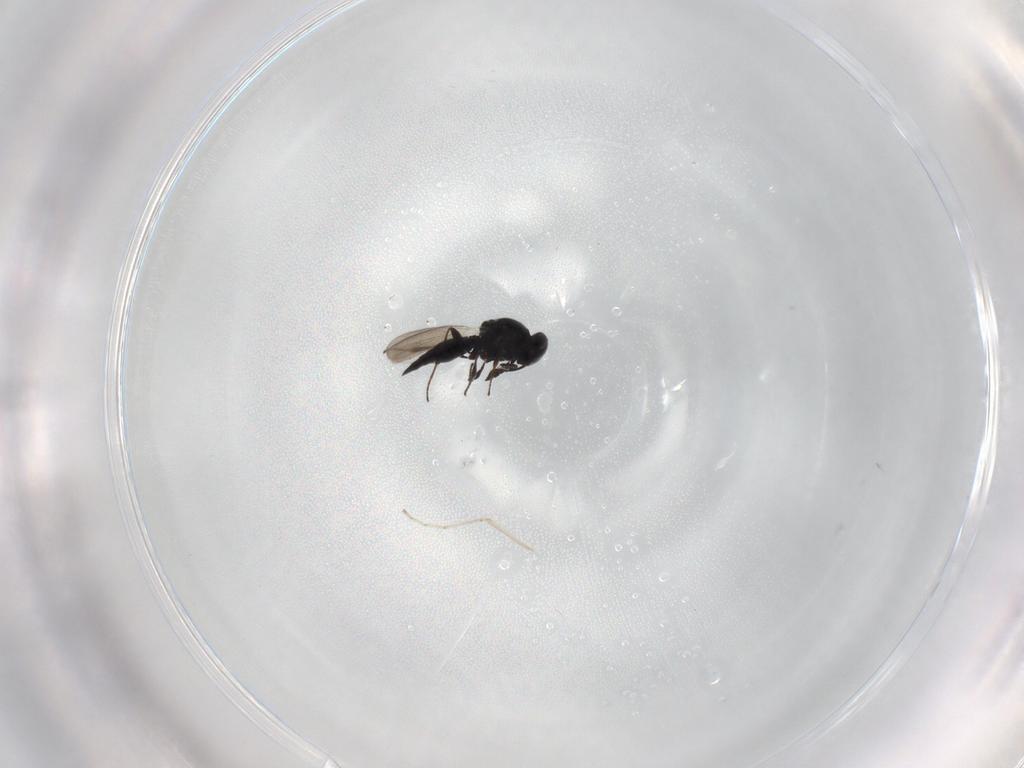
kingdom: Animalia
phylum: Arthropoda
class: Insecta
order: Hymenoptera
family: Platygastridae
